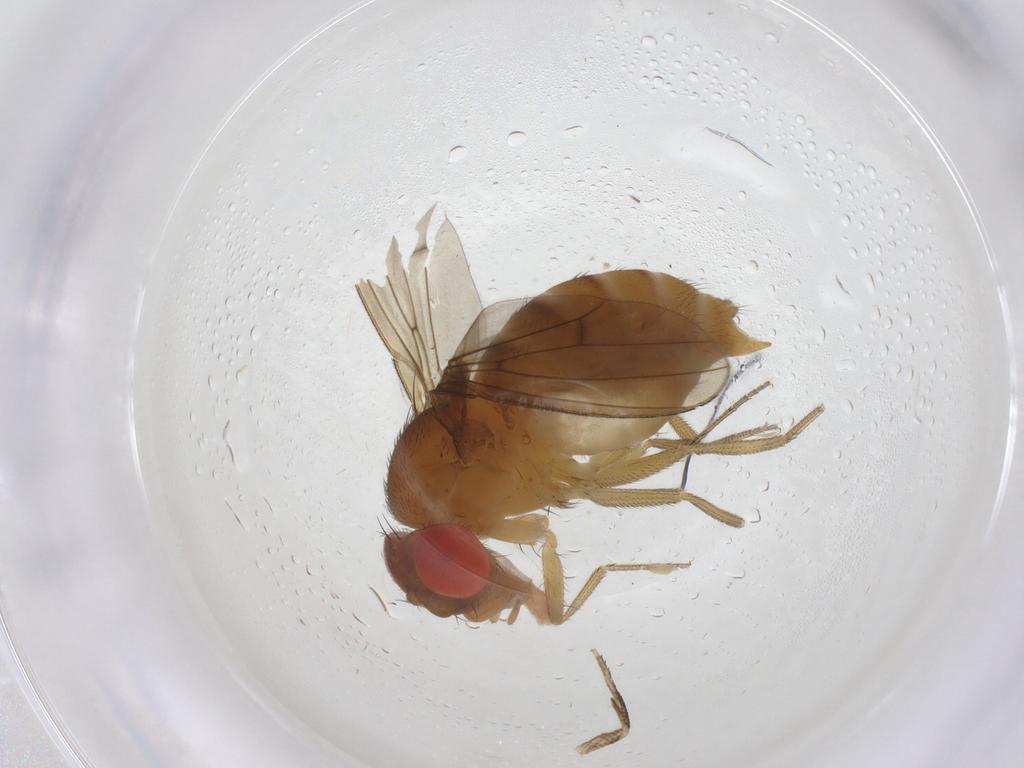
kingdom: Animalia
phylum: Arthropoda
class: Insecta
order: Diptera
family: Drosophilidae
